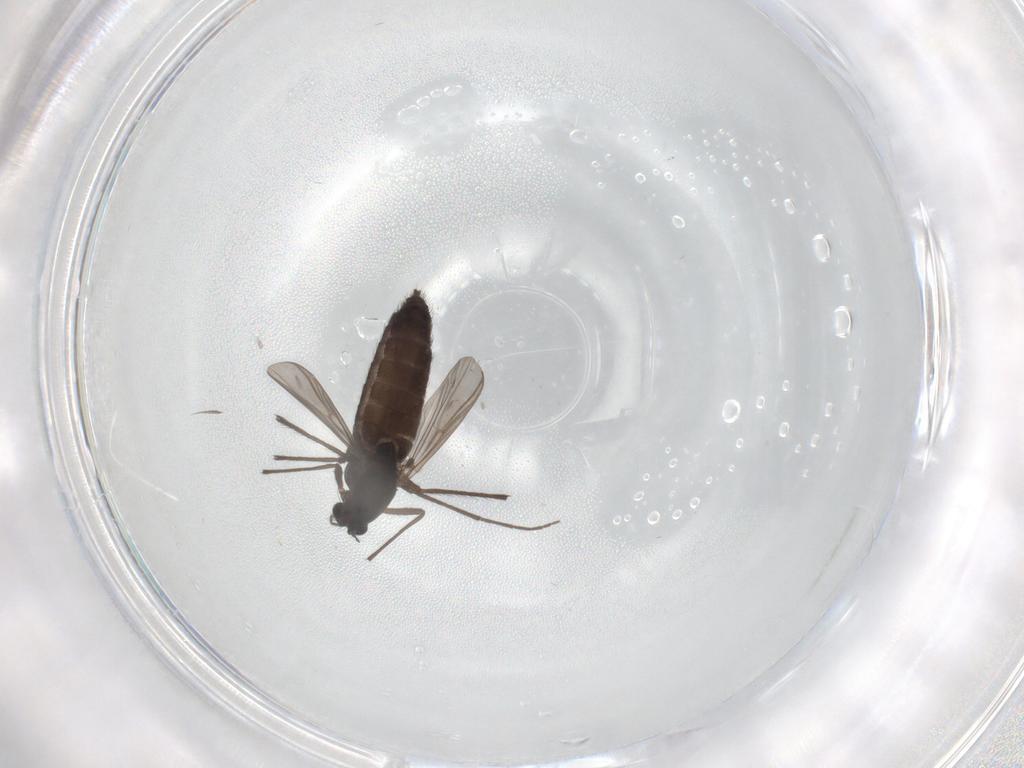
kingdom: Animalia
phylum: Arthropoda
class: Insecta
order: Diptera
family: Chironomidae
